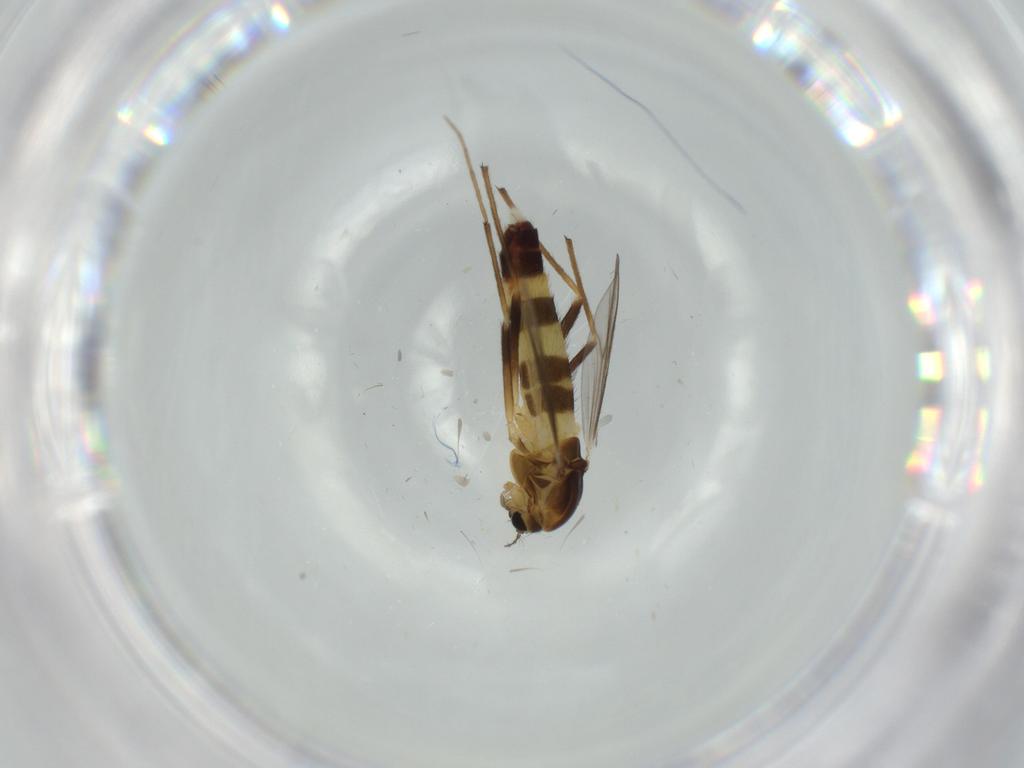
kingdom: Animalia
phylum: Arthropoda
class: Insecta
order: Diptera
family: Chironomidae
